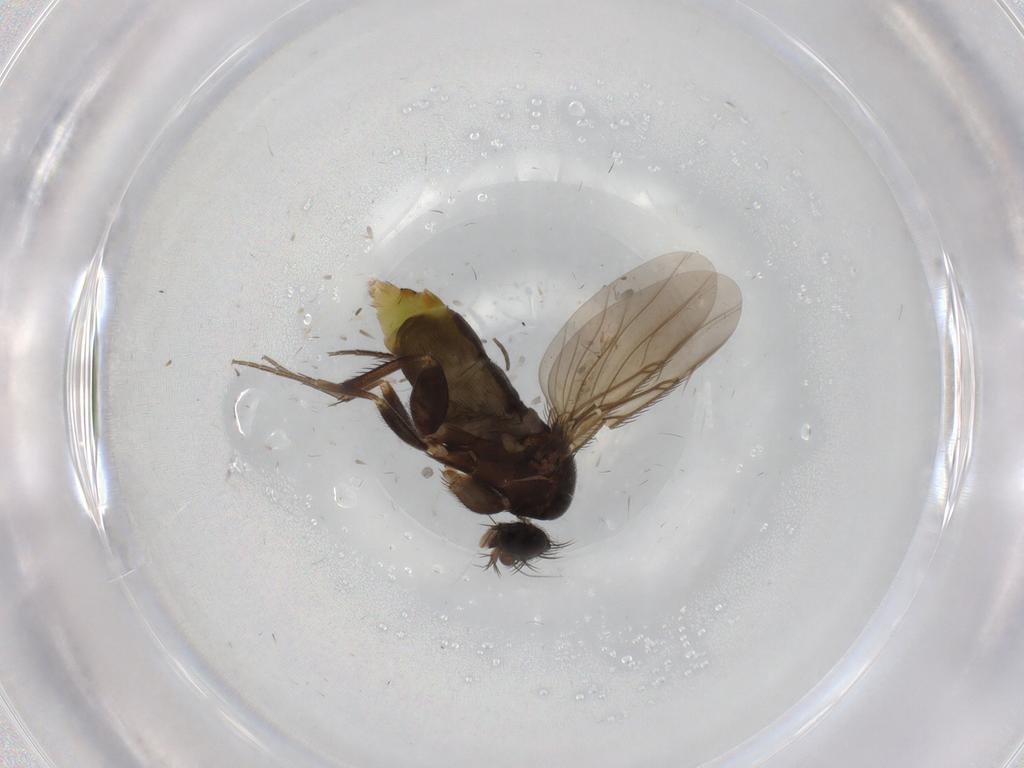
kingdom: Animalia
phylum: Arthropoda
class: Insecta
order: Diptera
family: Phoridae
